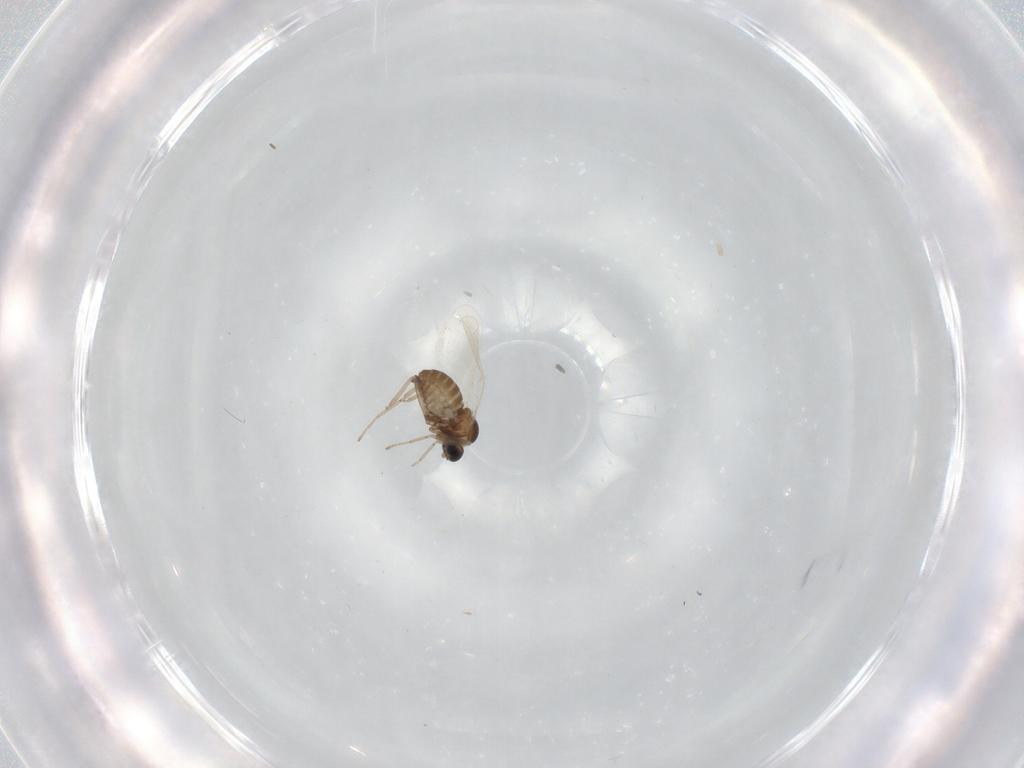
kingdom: Animalia
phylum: Arthropoda
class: Insecta
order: Diptera
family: Cecidomyiidae
